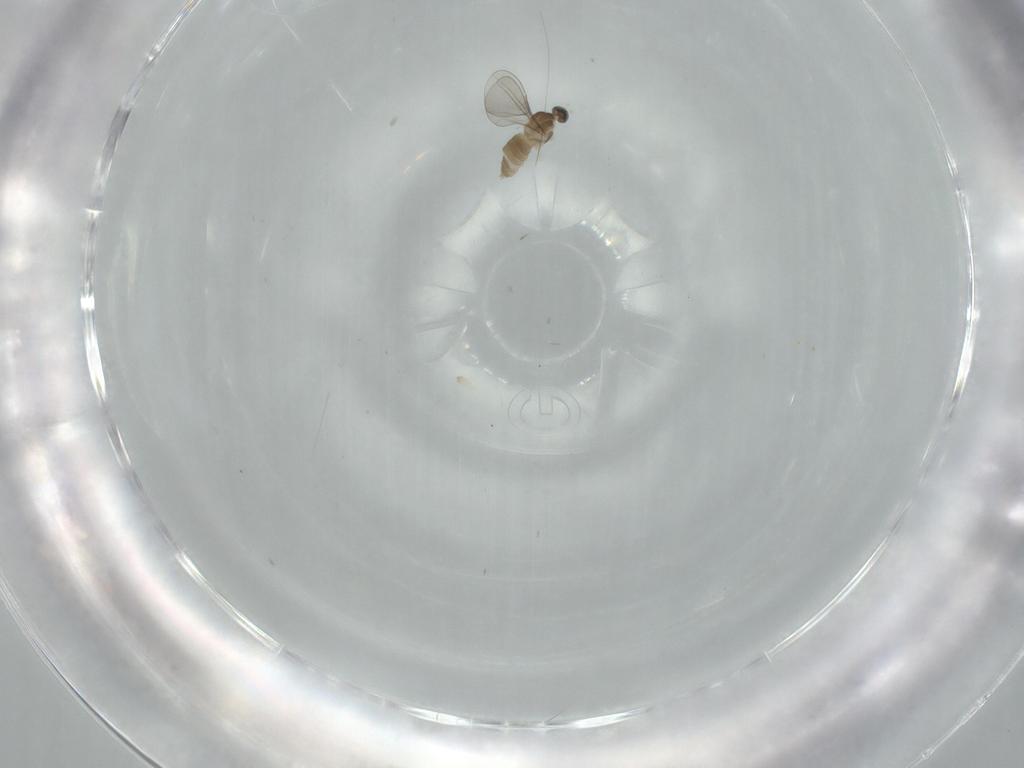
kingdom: Animalia
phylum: Arthropoda
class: Insecta
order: Diptera
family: Cecidomyiidae
